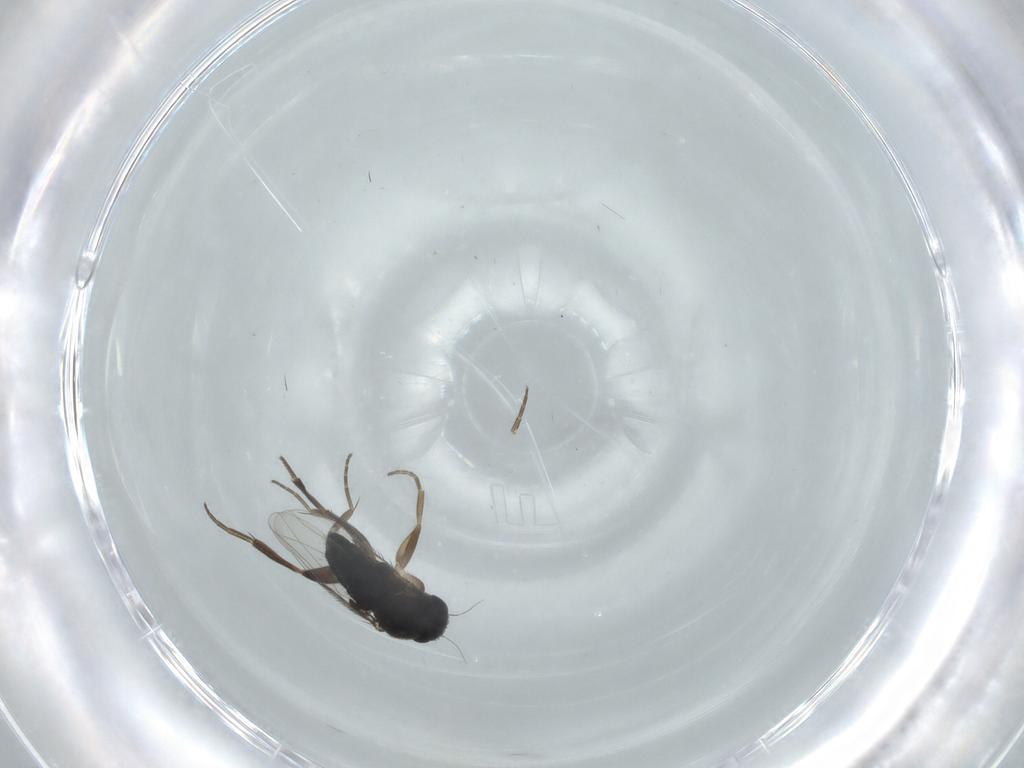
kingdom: Animalia
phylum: Arthropoda
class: Insecta
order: Diptera
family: Phoridae
